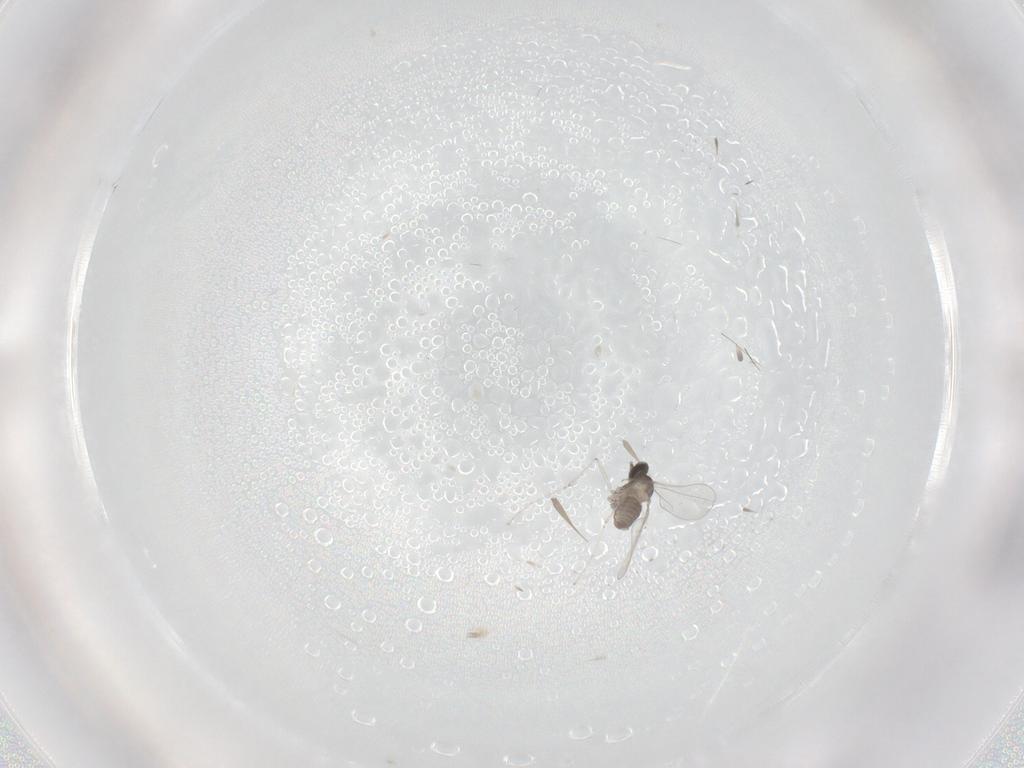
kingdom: Animalia
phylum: Arthropoda
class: Insecta
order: Diptera
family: Cecidomyiidae
